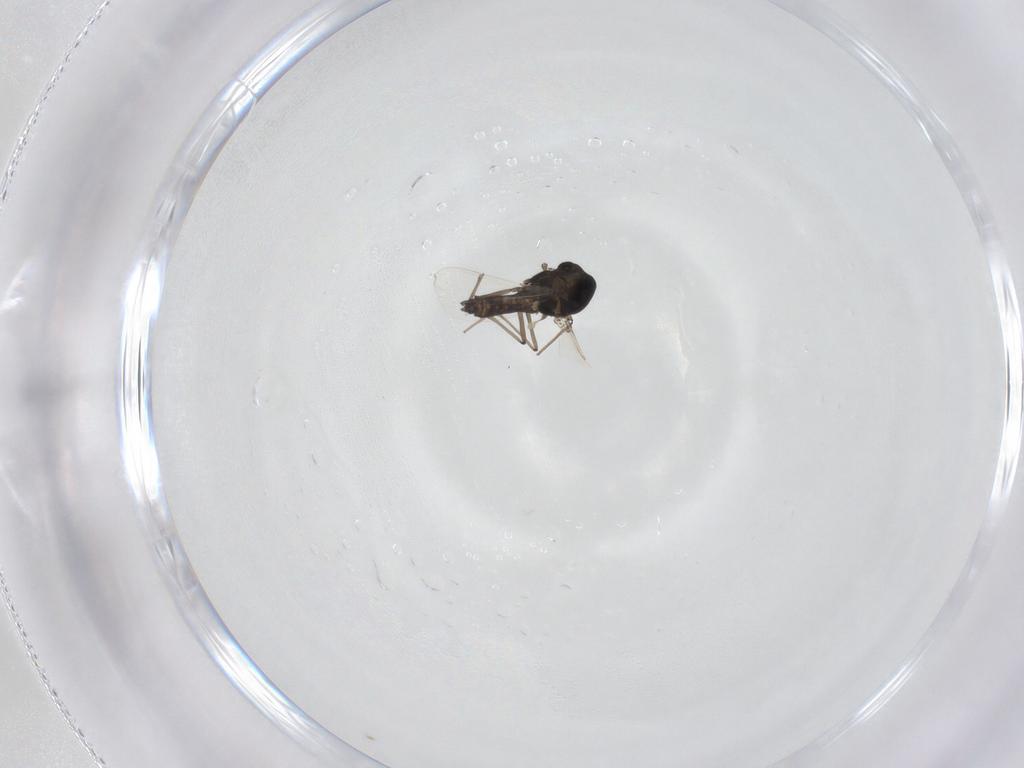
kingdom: Animalia
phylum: Arthropoda
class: Insecta
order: Diptera
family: Chironomidae
